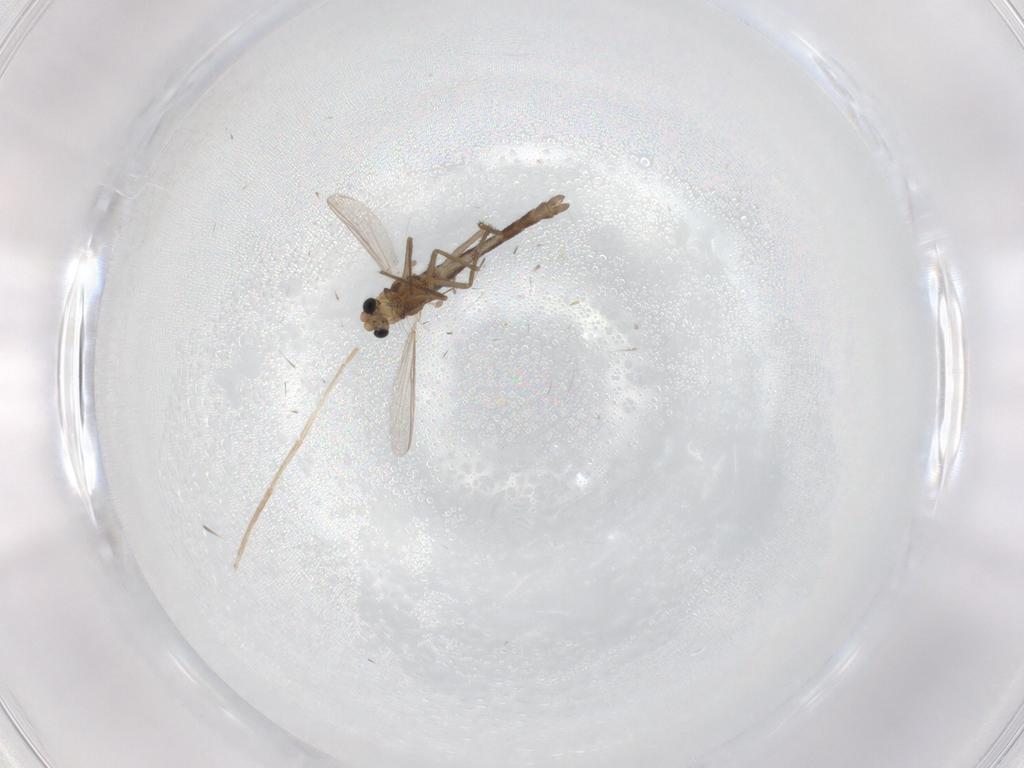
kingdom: Animalia
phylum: Arthropoda
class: Insecta
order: Diptera
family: Chironomidae
